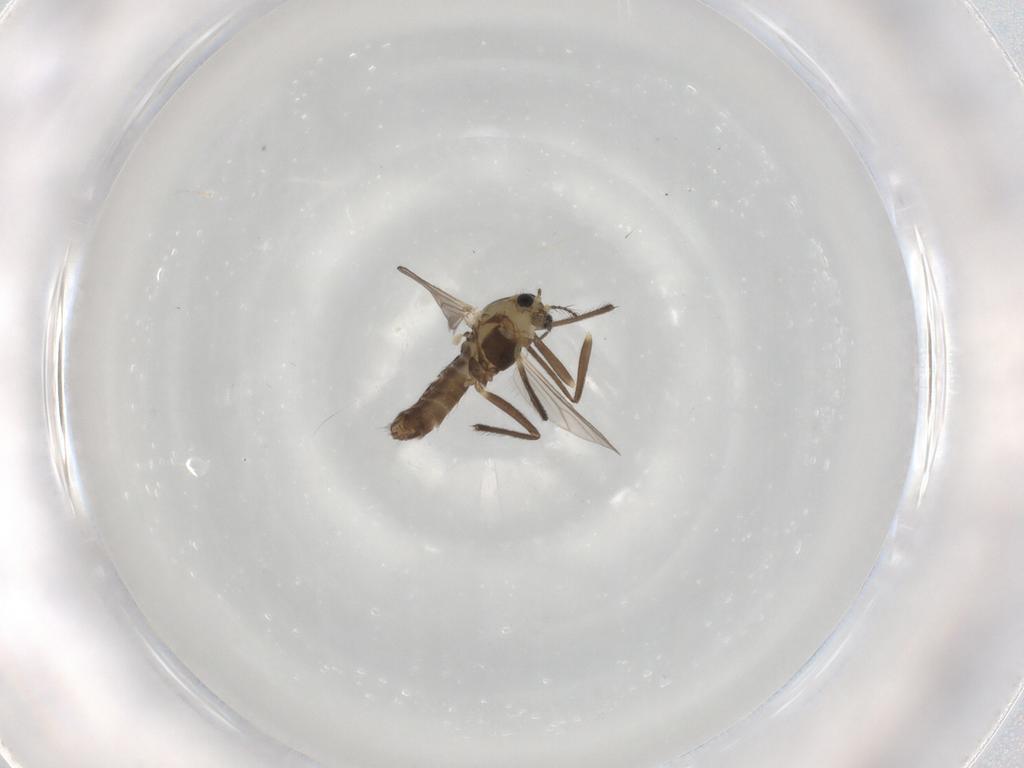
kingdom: Animalia
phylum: Arthropoda
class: Insecta
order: Diptera
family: Chironomidae
